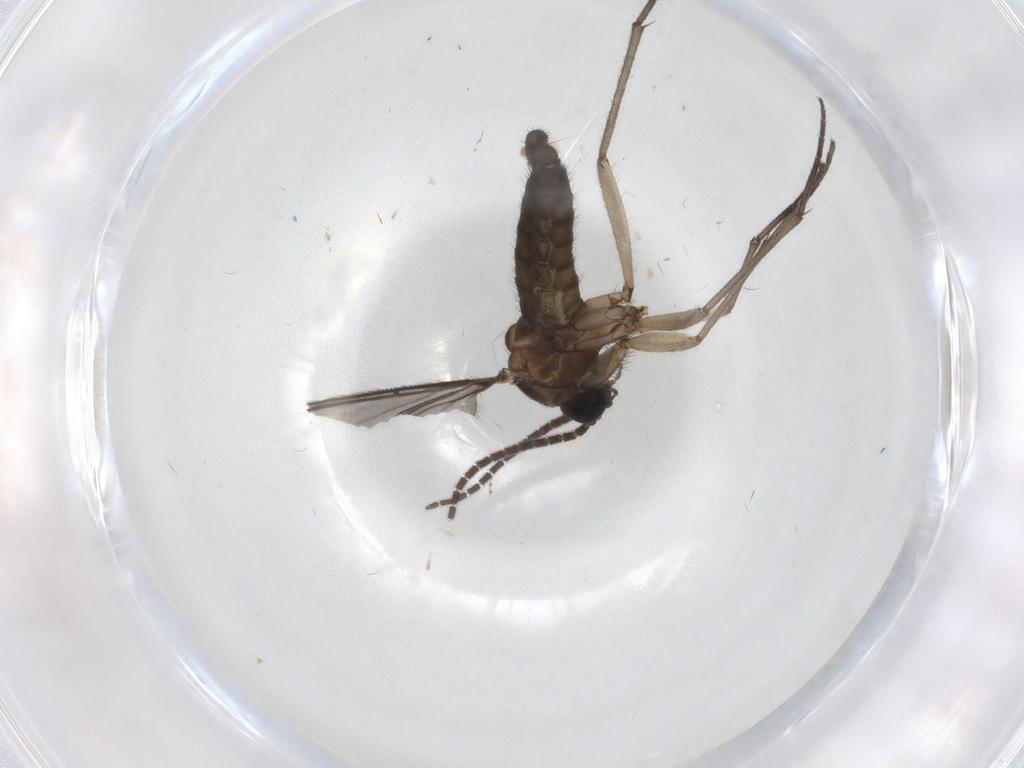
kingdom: Animalia
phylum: Arthropoda
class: Insecta
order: Diptera
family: Sciaridae
